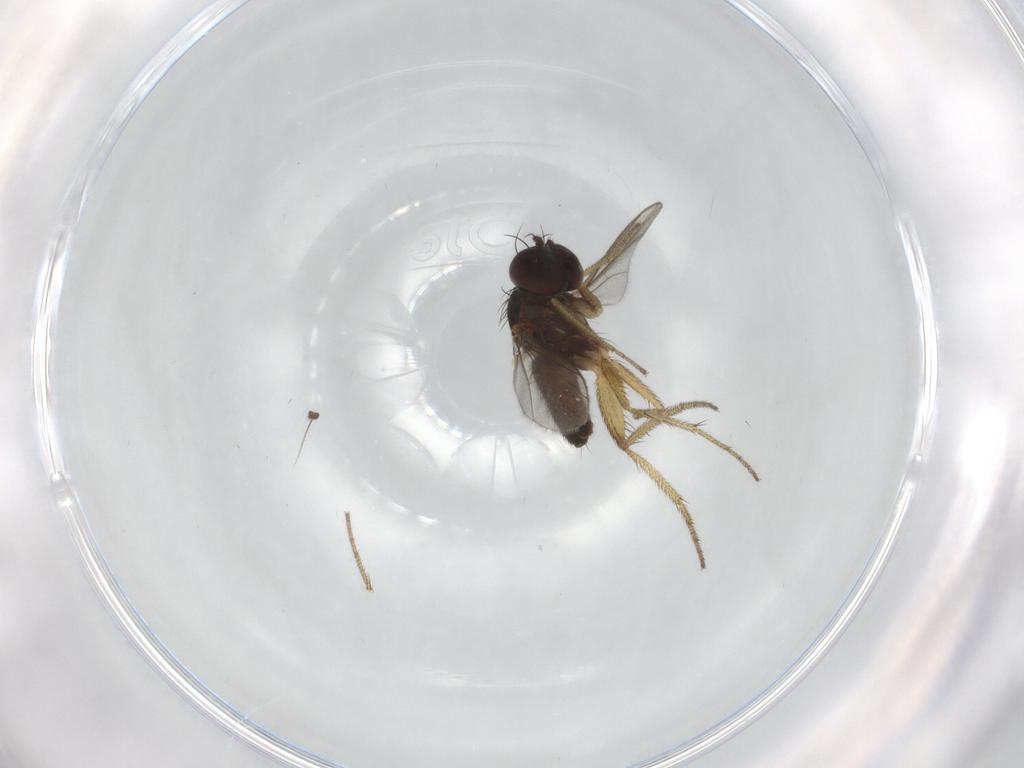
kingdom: Animalia
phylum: Arthropoda
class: Insecta
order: Diptera
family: Dolichopodidae
